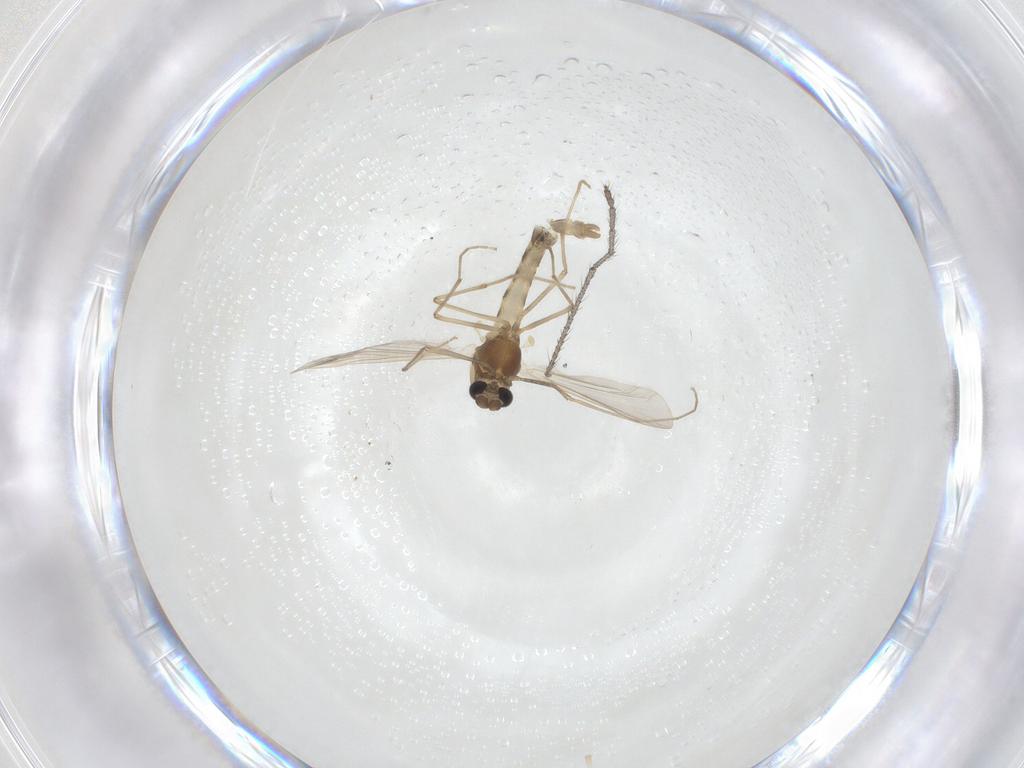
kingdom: Animalia
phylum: Arthropoda
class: Insecta
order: Diptera
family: Chironomidae
